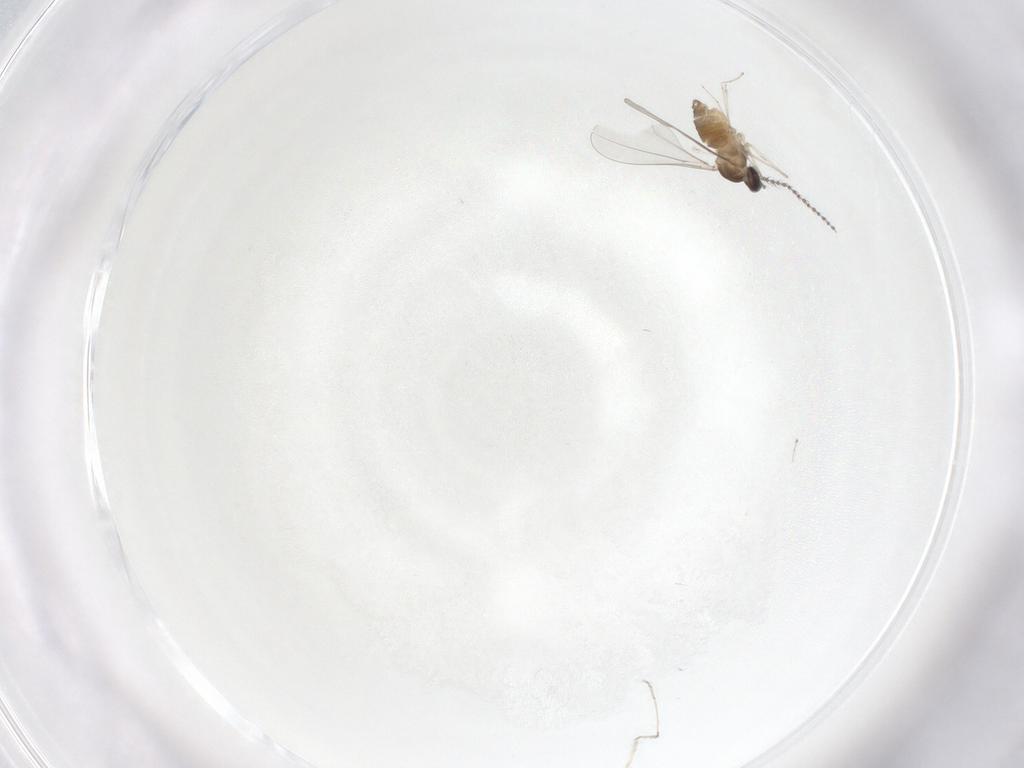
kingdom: Animalia
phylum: Arthropoda
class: Insecta
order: Diptera
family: Cecidomyiidae
